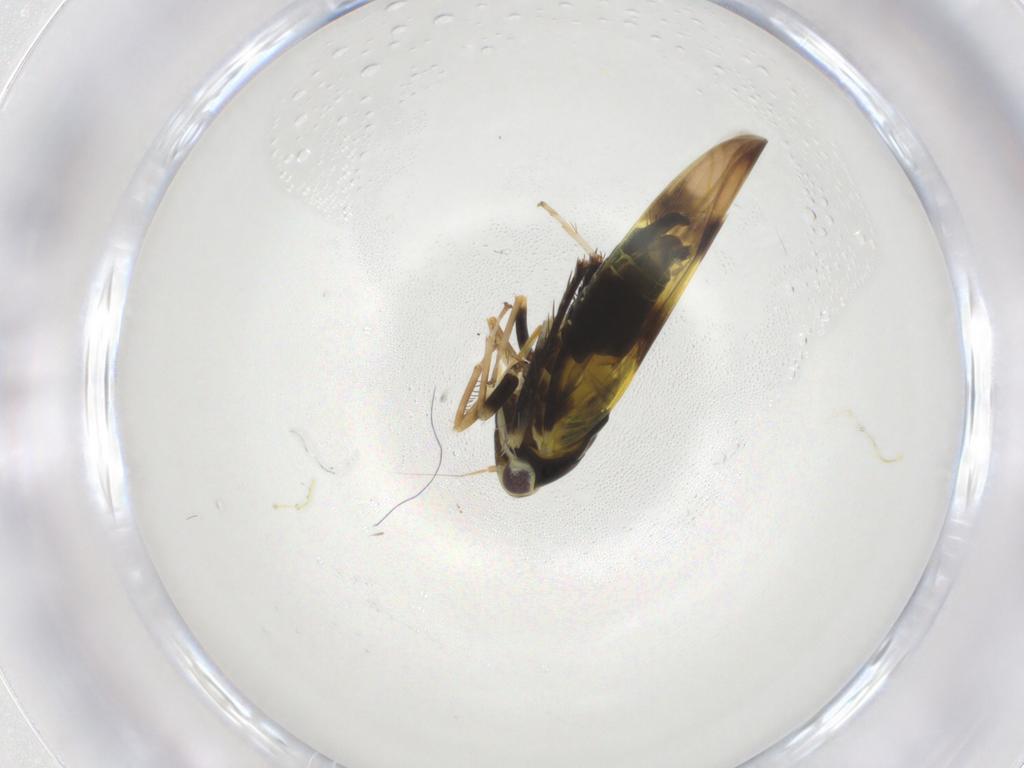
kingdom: Animalia
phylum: Arthropoda
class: Insecta
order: Hemiptera
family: Cicadellidae
